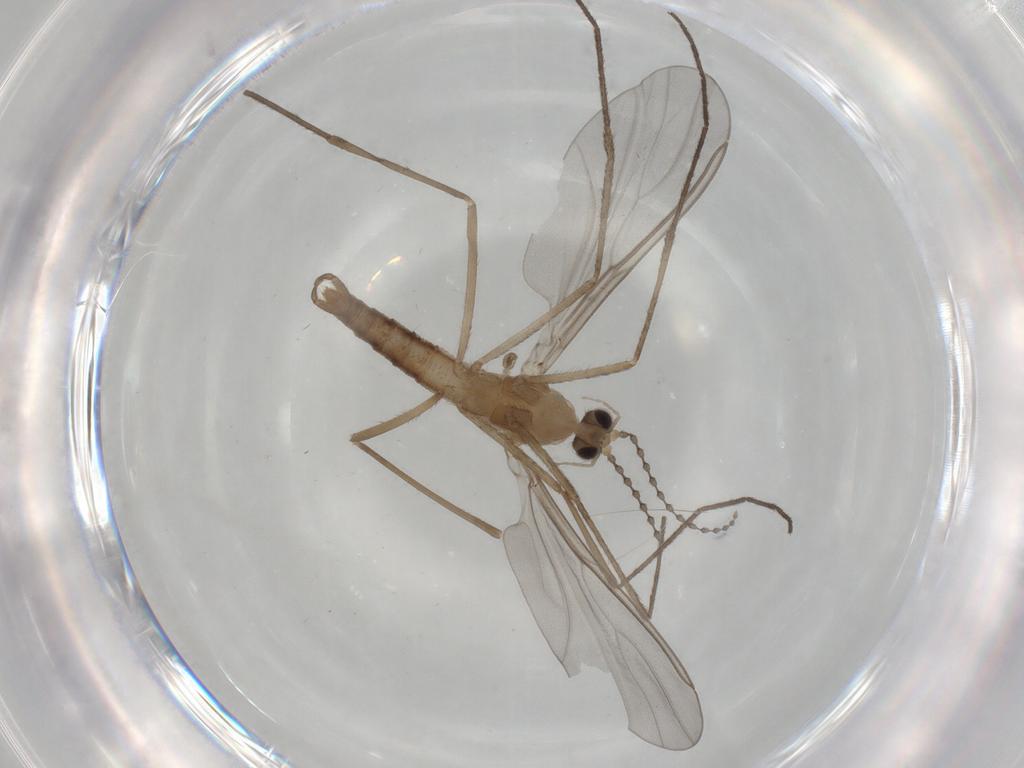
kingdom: Animalia
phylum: Arthropoda
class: Insecta
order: Diptera
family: Cecidomyiidae
